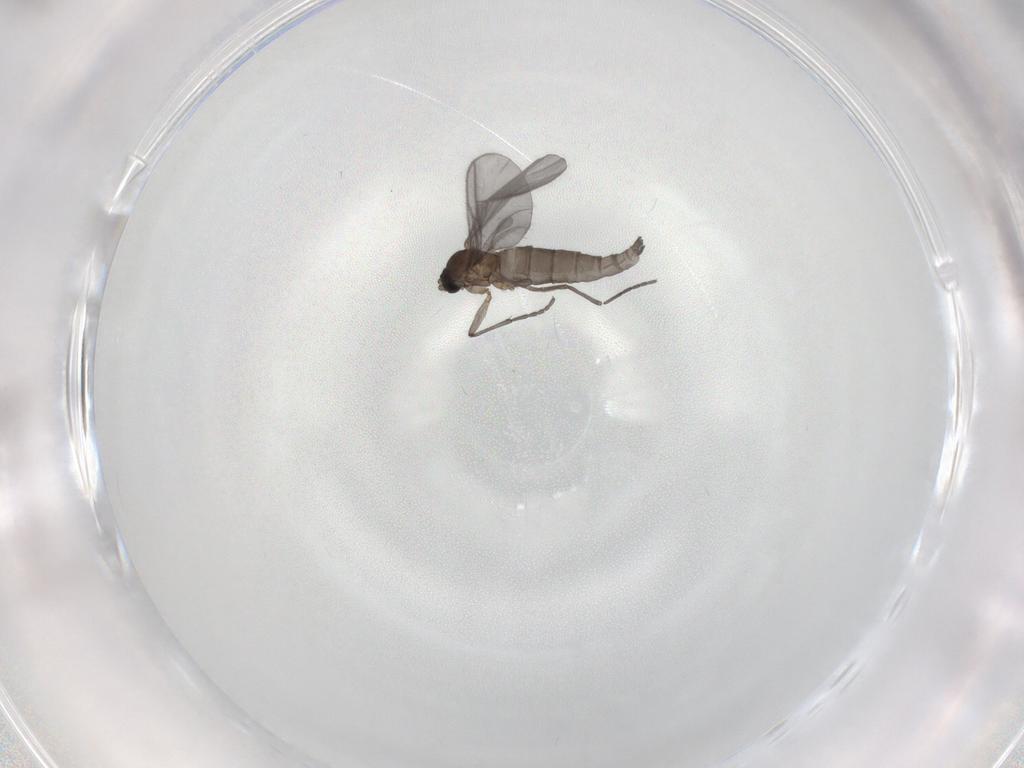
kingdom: Animalia
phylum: Arthropoda
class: Insecta
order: Diptera
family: Sciaridae
